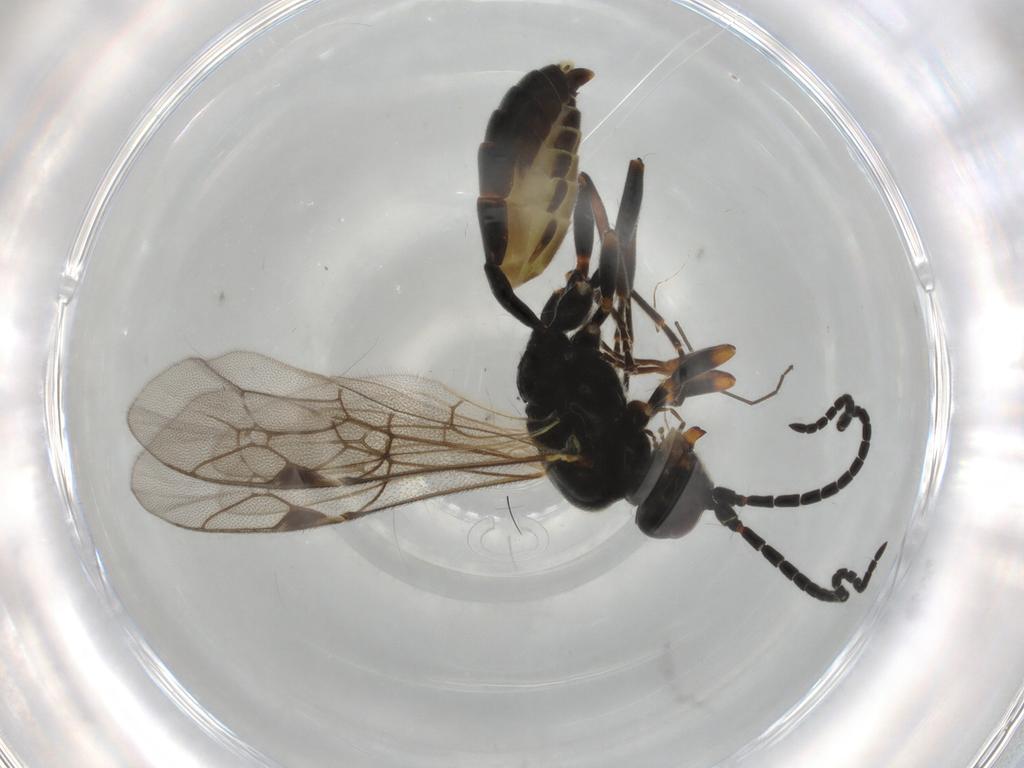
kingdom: Animalia
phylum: Arthropoda
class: Insecta
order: Hymenoptera
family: Ichneumonidae
